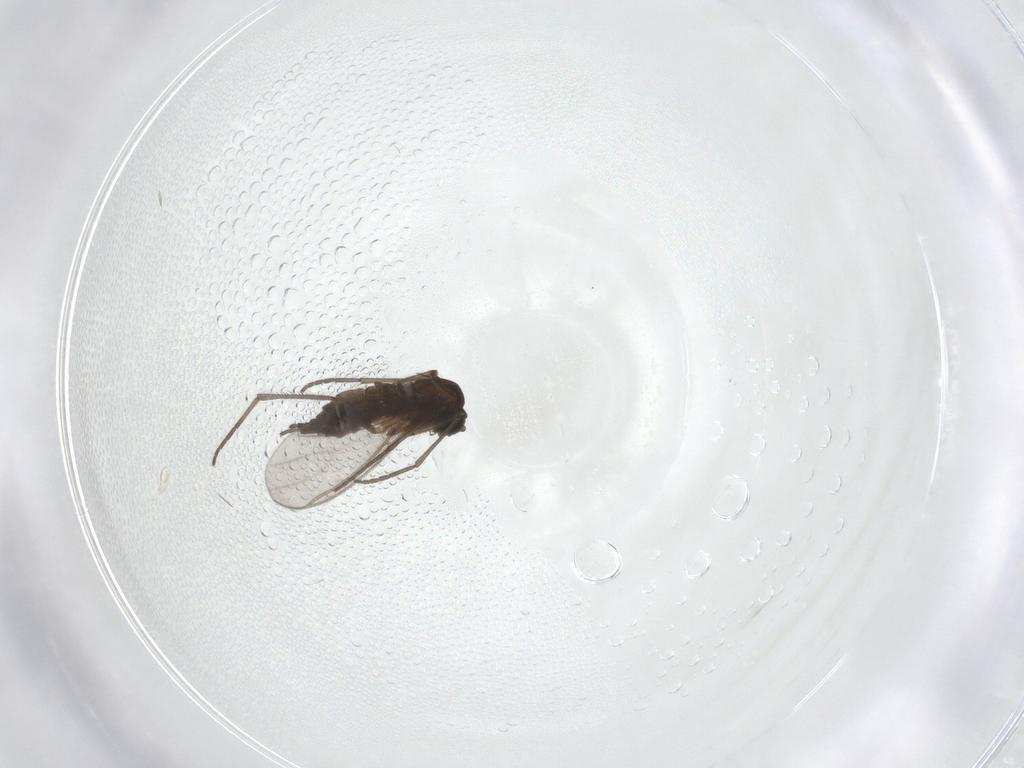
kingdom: Animalia
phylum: Arthropoda
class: Insecta
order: Diptera
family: Sciaridae
